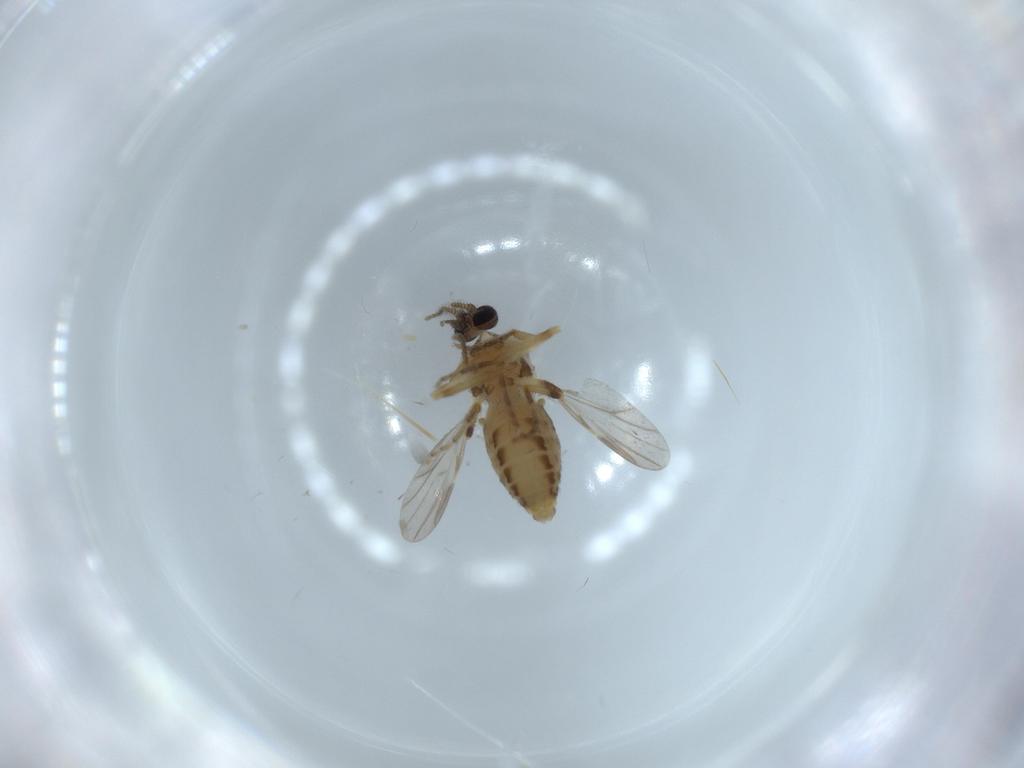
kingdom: Animalia
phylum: Arthropoda
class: Insecta
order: Diptera
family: Ceratopogonidae
